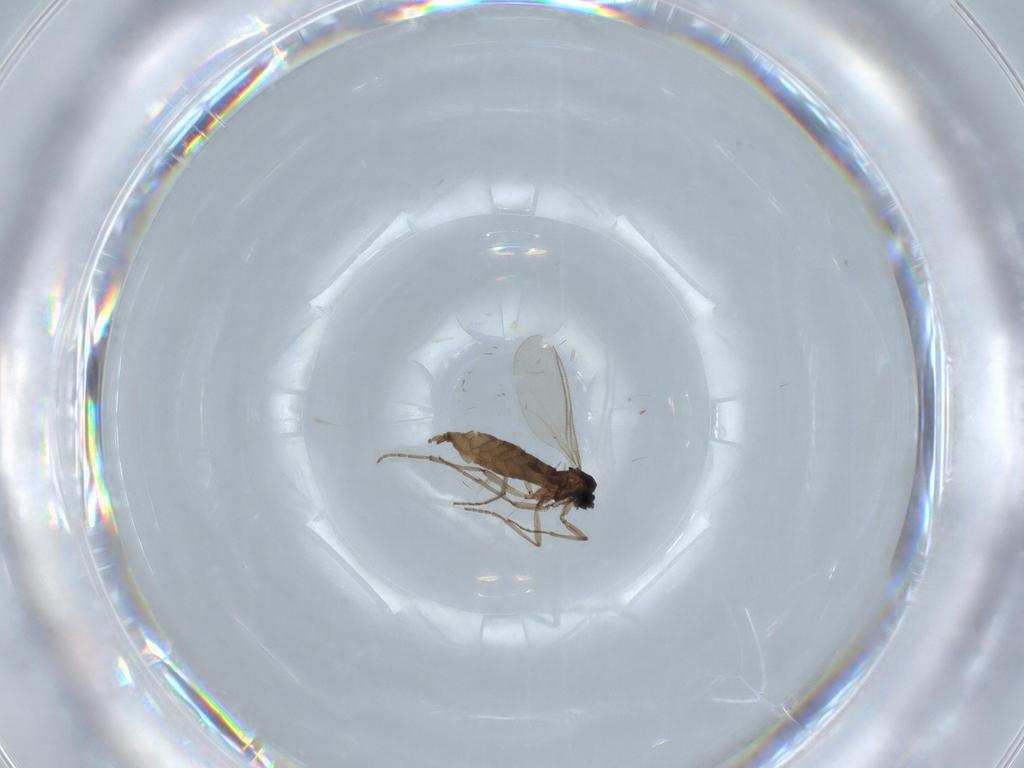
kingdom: Animalia
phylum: Arthropoda
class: Insecta
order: Diptera
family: Sciaridae
